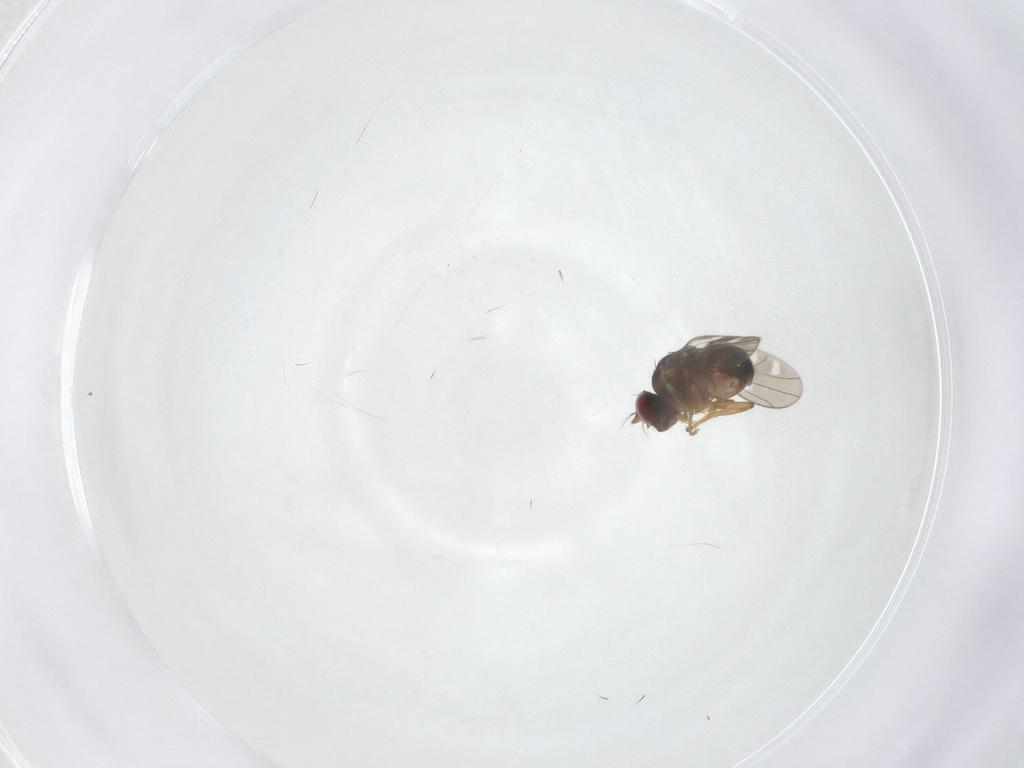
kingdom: Animalia
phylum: Arthropoda
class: Insecta
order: Diptera
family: Ephydridae
